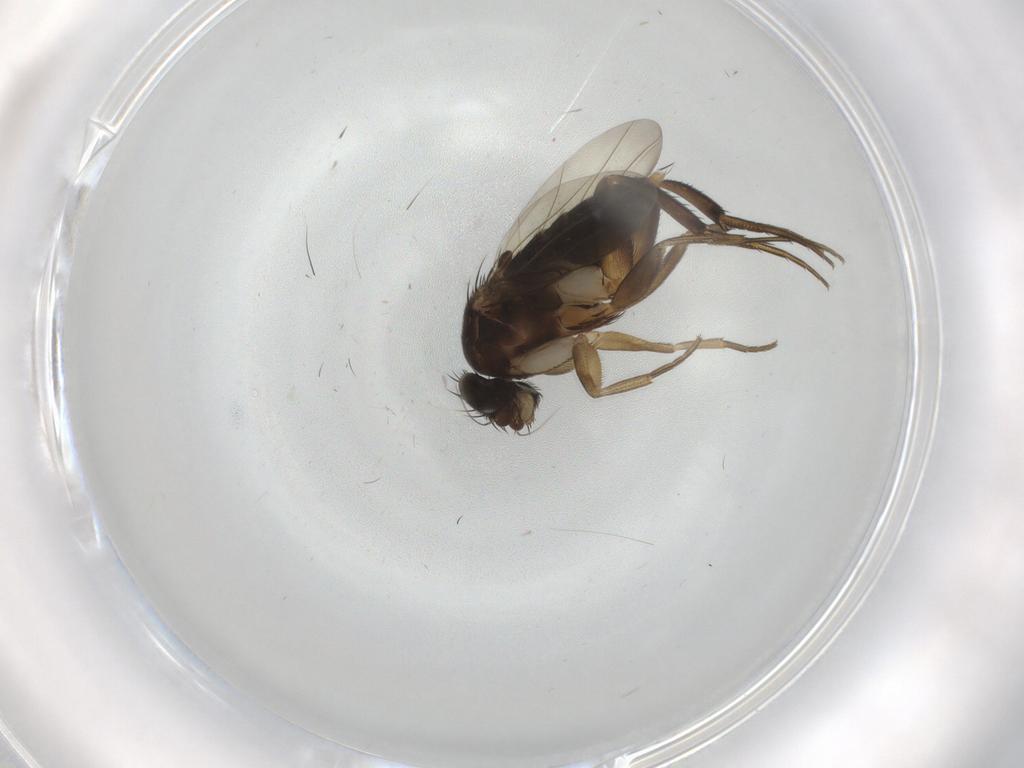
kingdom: Animalia
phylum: Arthropoda
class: Insecta
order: Diptera
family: Phoridae
